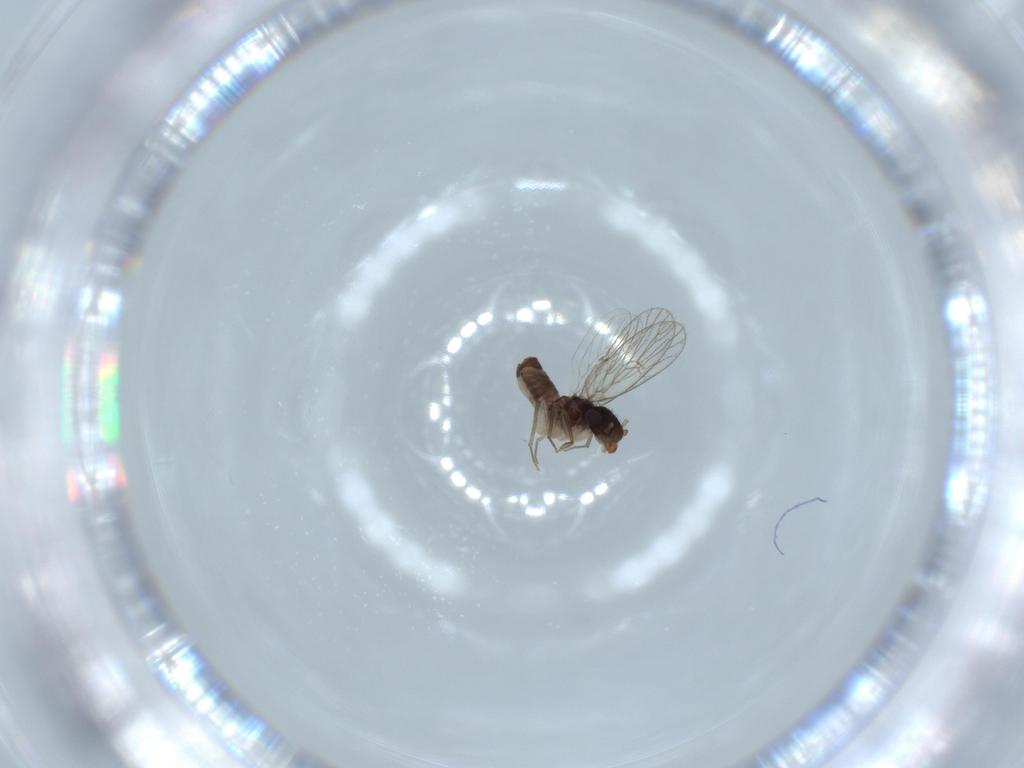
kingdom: Animalia
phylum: Arthropoda
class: Insecta
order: Psocodea
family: Psoquillidae
